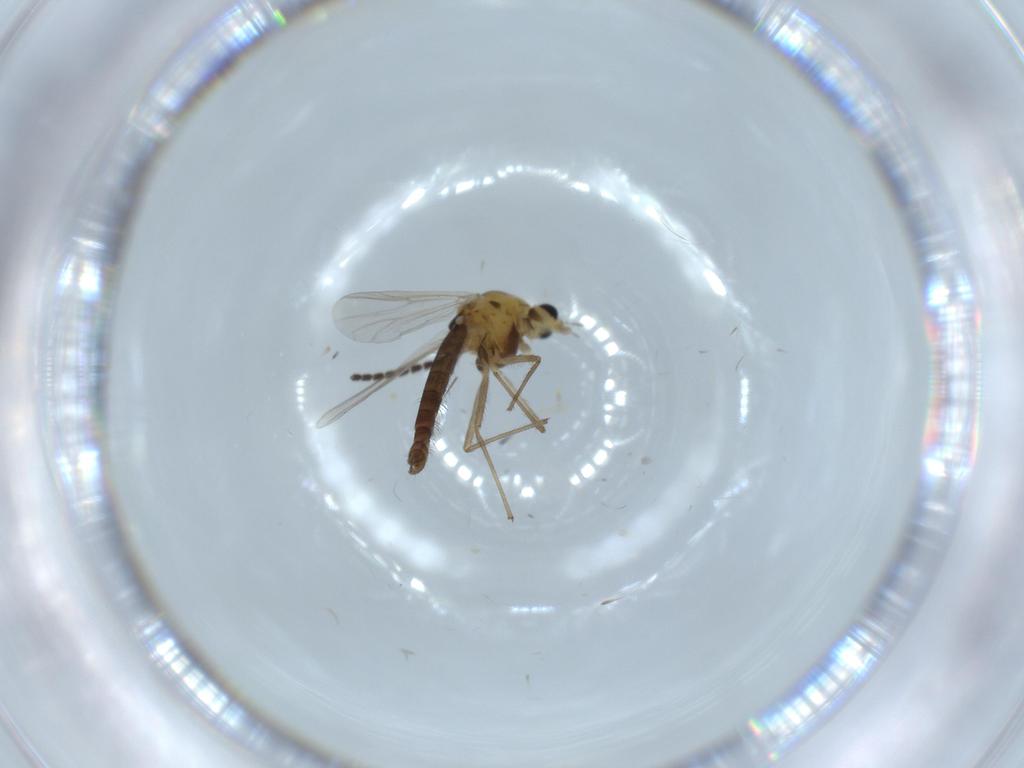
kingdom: Animalia
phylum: Arthropoda
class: Insecta
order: Diptera
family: Chironomidae
